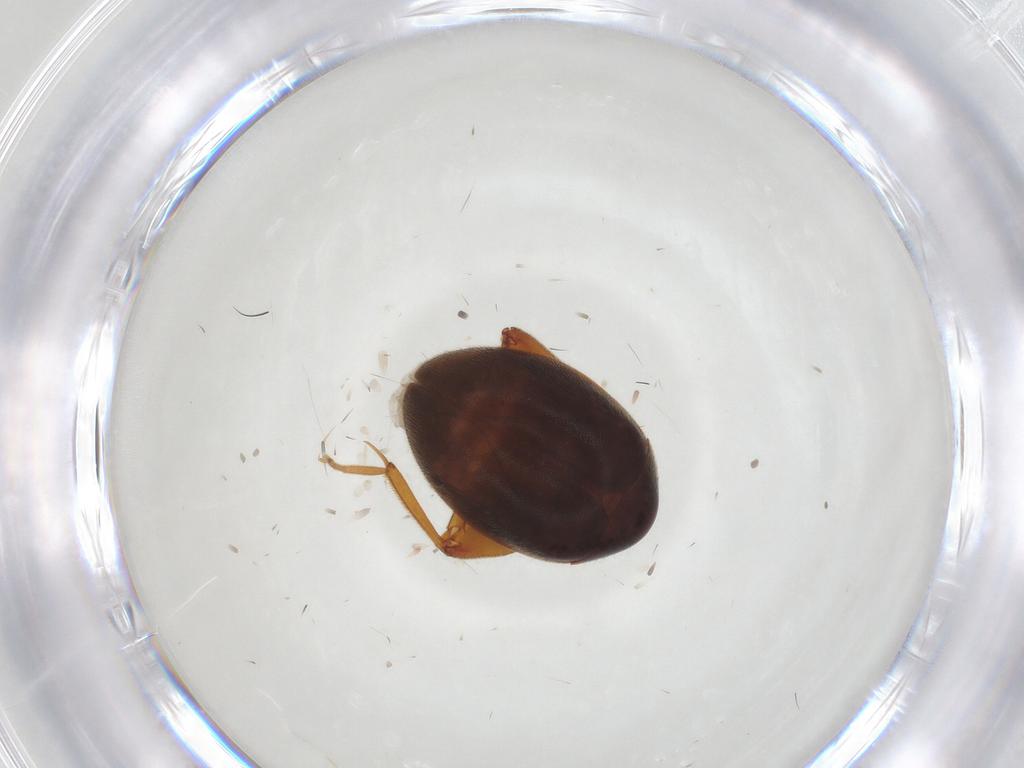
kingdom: Animalia
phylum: Arthropoda
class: Insecta
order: Coleoptera
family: Scirtidae
